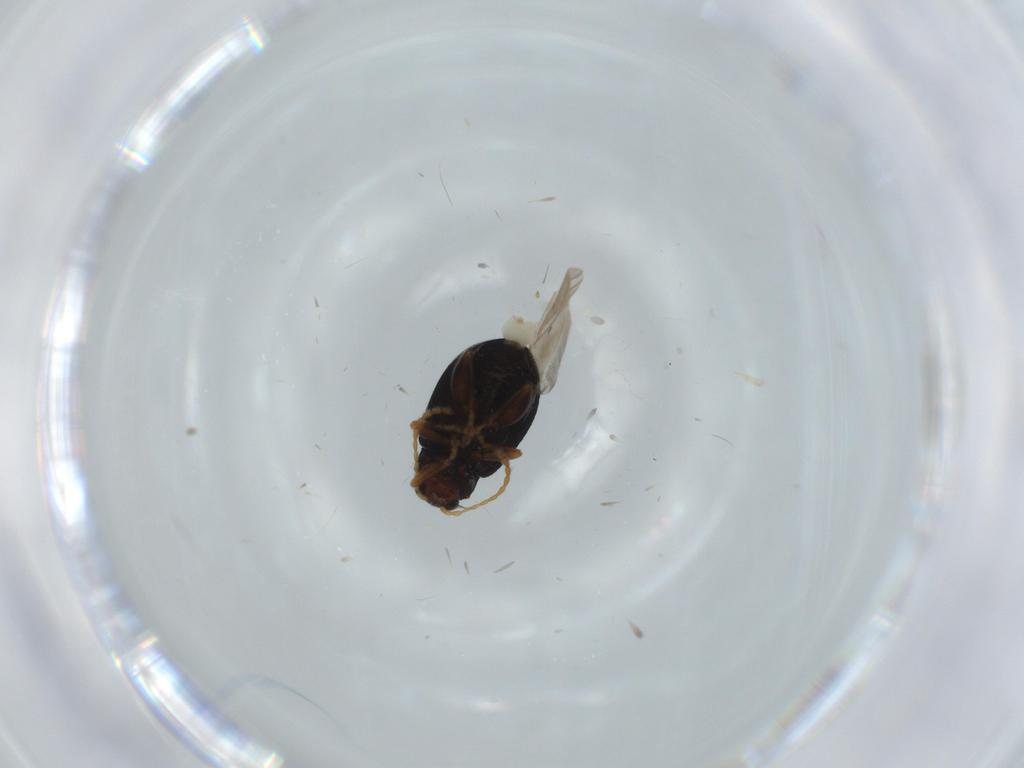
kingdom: Animalia
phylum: Arthropoda
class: Insecta
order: Coleoptera
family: Chrysomelidae
